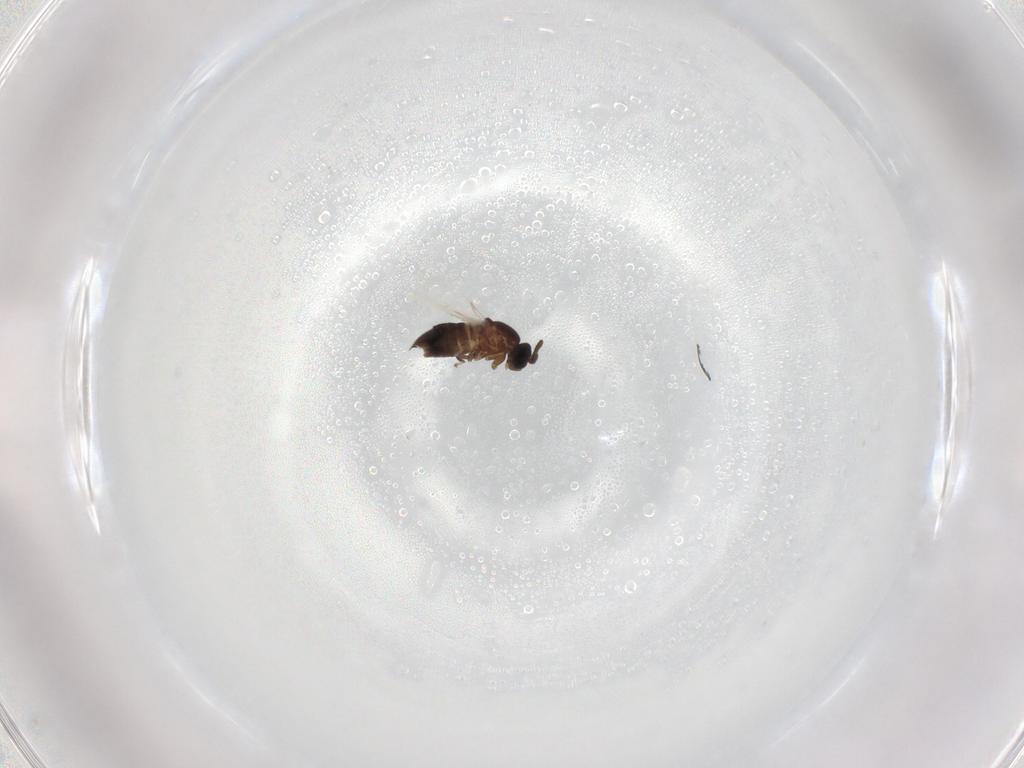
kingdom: Animalia
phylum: Arthropoda
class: Insecta
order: Diptera
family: Scatopsidae
